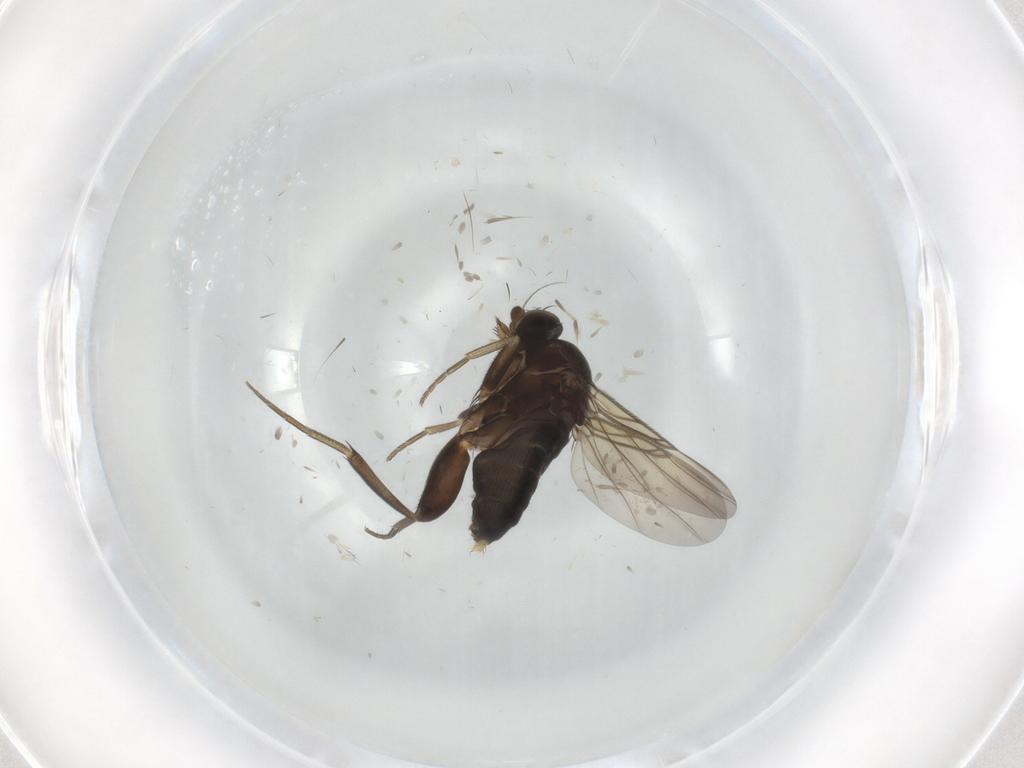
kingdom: Animalia
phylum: Arthropoda
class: Insecta
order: Diptera
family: Phoridae
